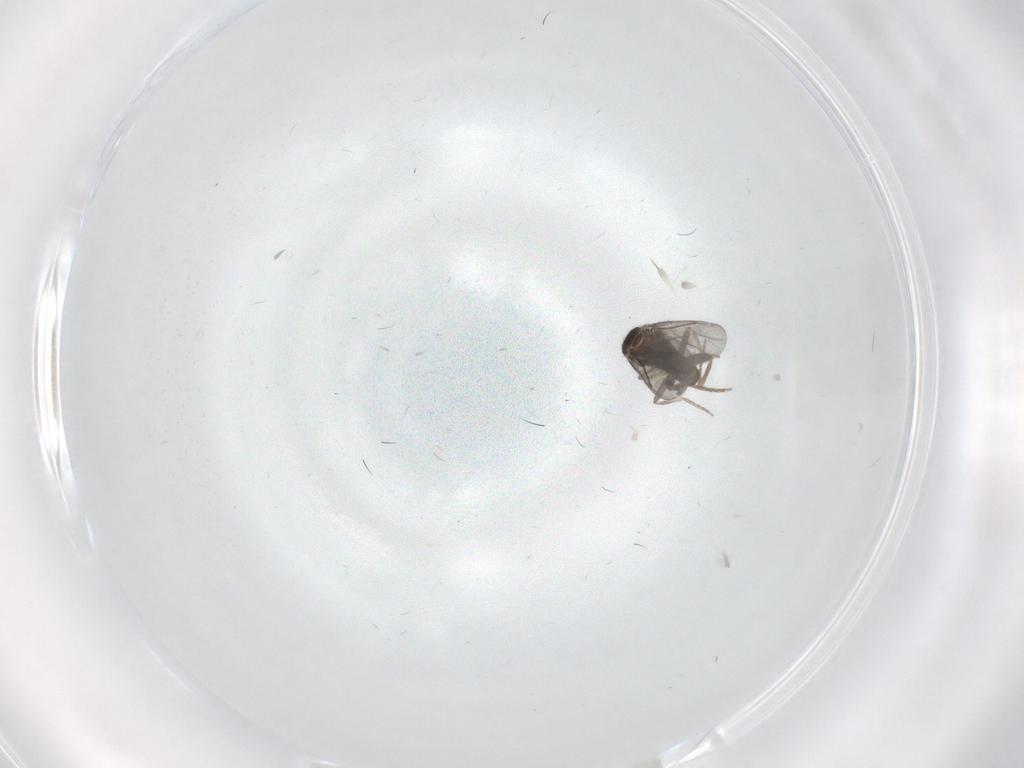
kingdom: Animalia
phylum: Arthropoda
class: Insecta
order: Diptera
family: Cecidomyiidae
